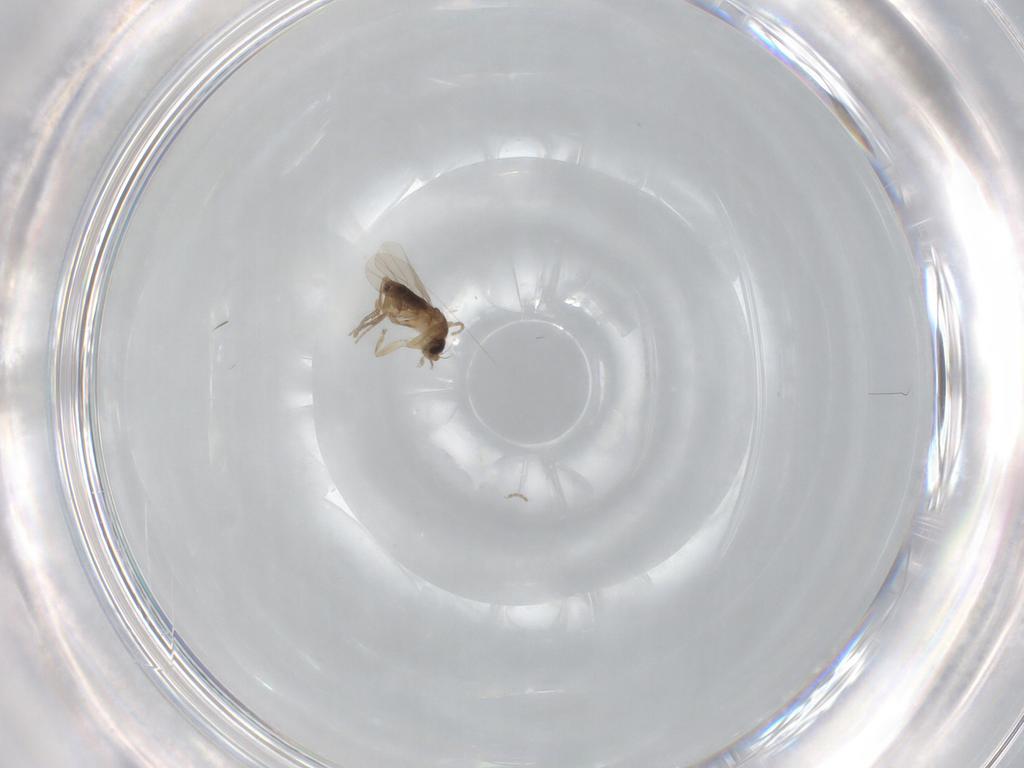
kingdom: Animalia
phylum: Arthropoda
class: Insecta
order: Diptera
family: Phoridae
